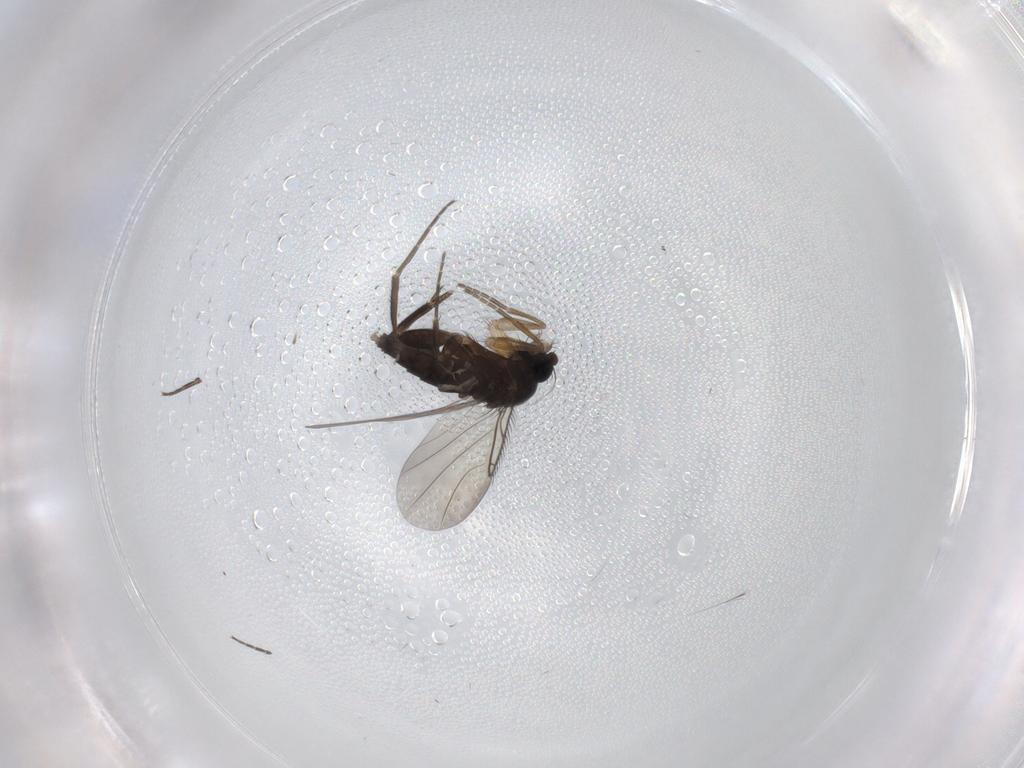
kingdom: Animalia
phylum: Arthropoda
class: Insecta
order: Diptera
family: Phoridae
